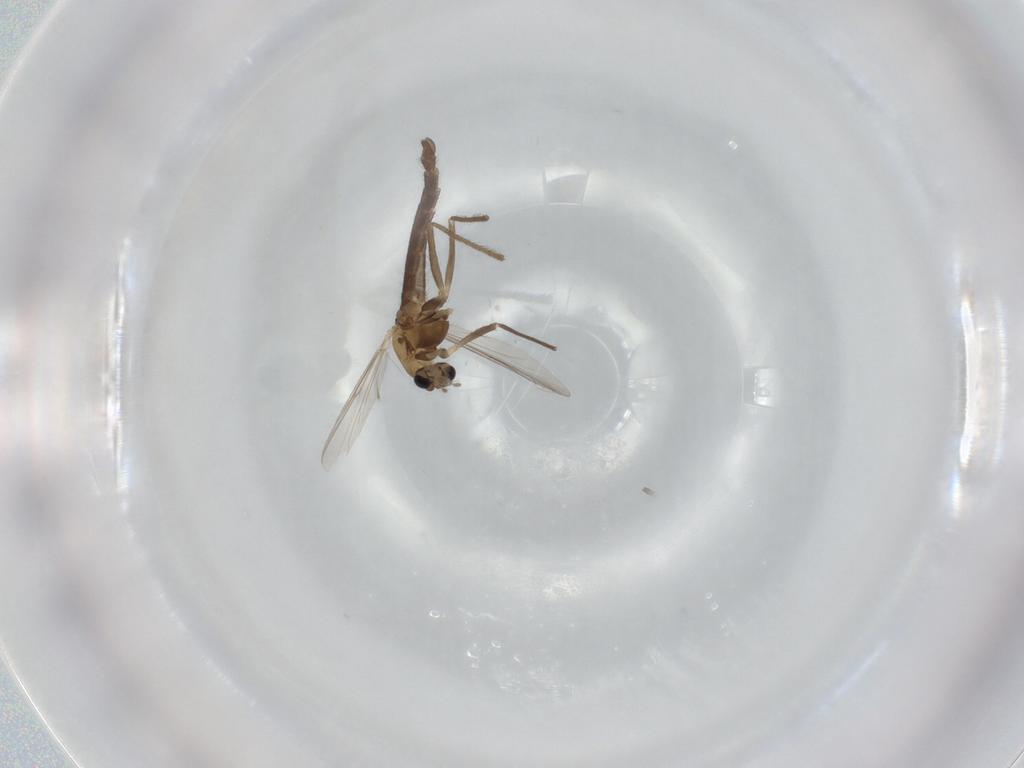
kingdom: Animalia
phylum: Arthropoda
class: Insecta
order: Diptera
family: Chironomidae
